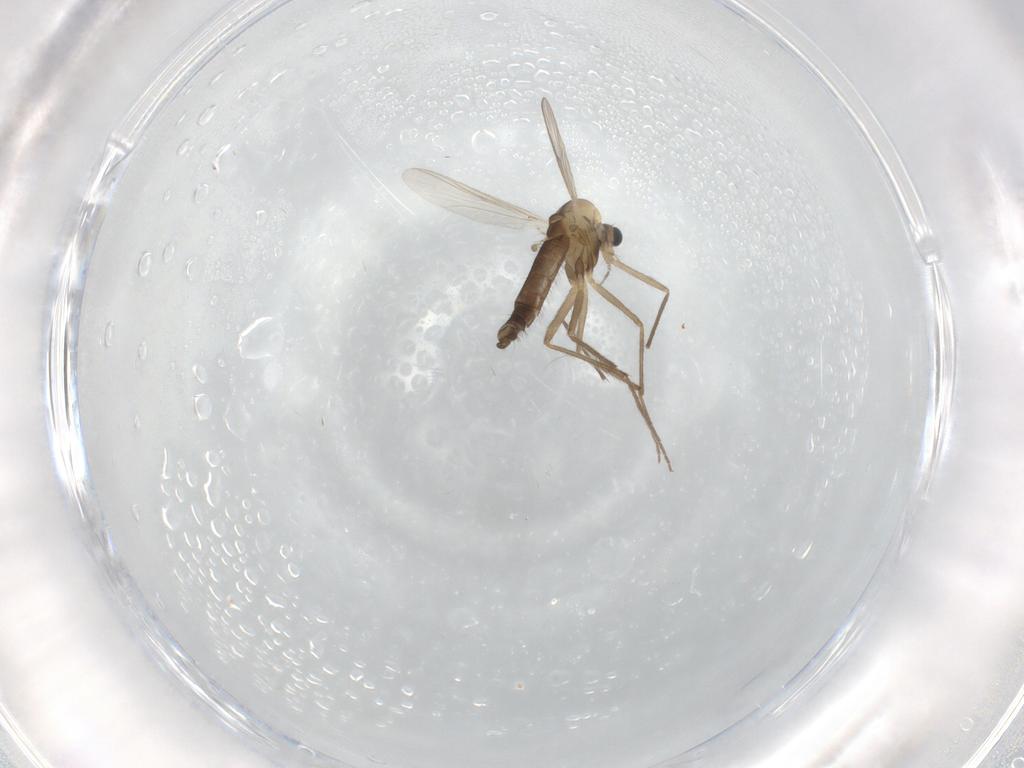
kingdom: Animalia
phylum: Arthropoda
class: Insecta
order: Diptera
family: Chironomidae
